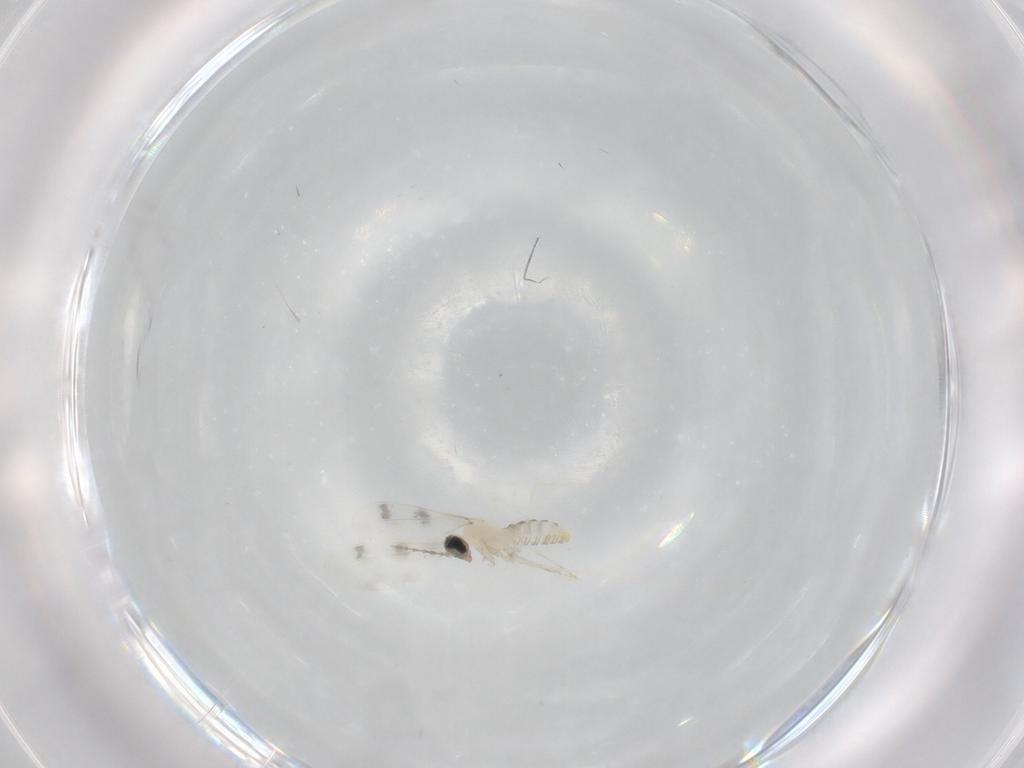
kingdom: Animalia
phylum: Arthropoda
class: Insecta
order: Diptera
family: Cecidomyiidae
